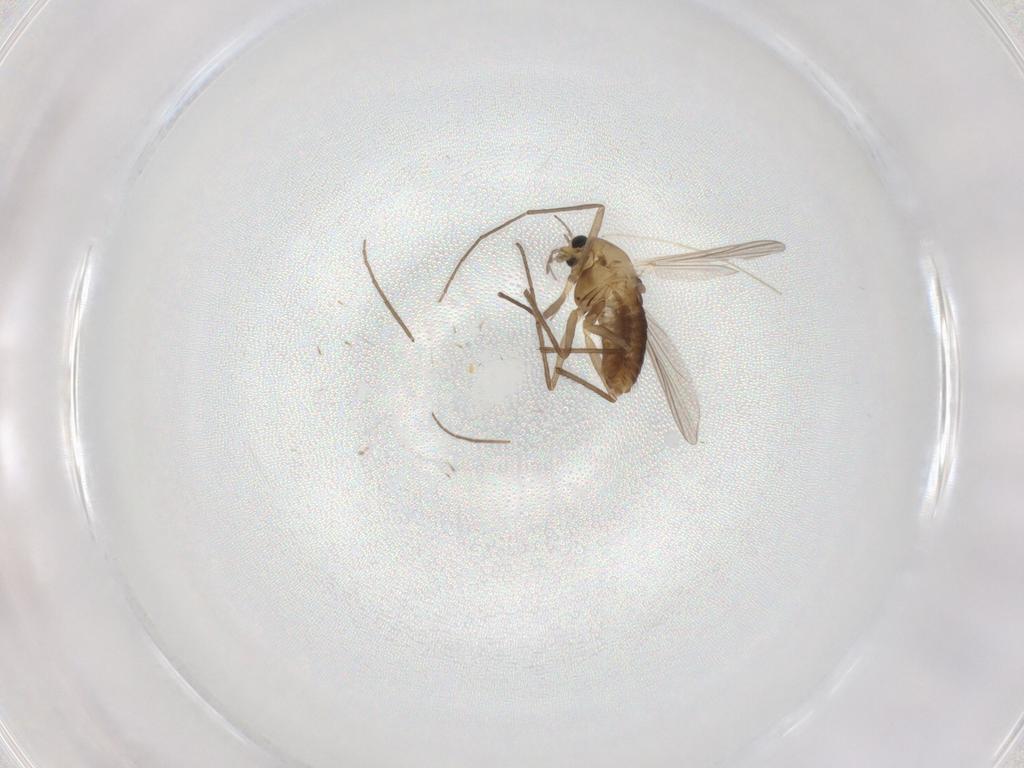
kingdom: Animalia
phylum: Arthropoda
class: Insecta
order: Diptera
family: Chironomidae
